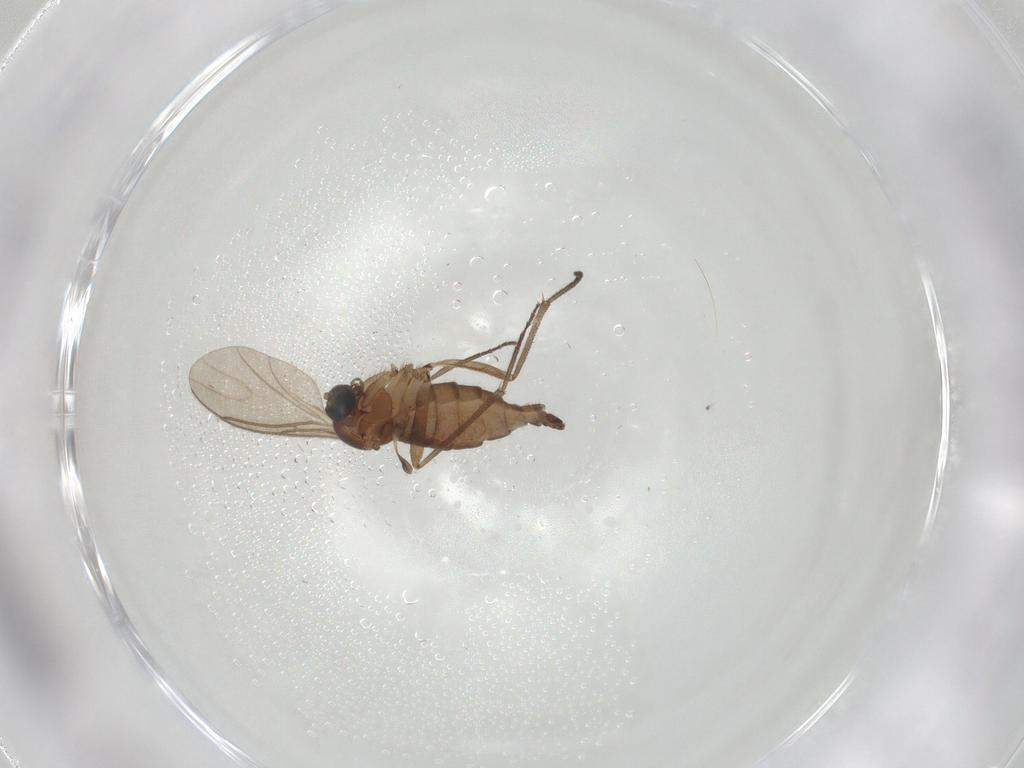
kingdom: Animalia
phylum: Arthropoda
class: Insecta
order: Diptera
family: Sciaridae
